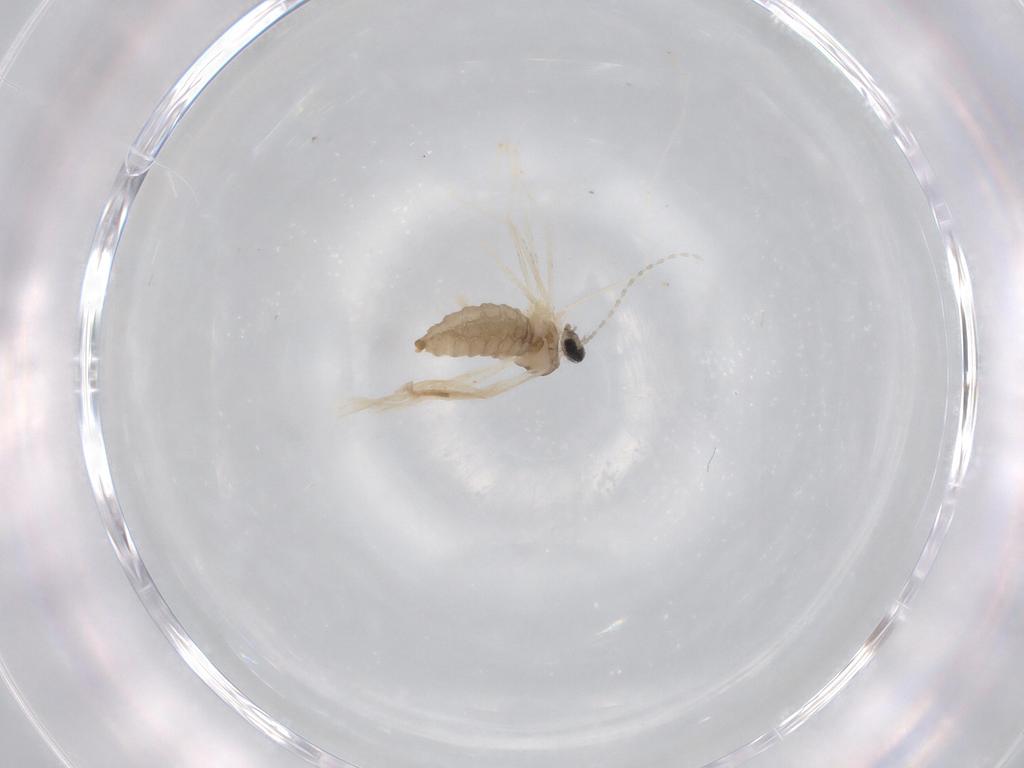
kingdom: Animalia
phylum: Arthropoda
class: Insecta
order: Diptera
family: Cecidomyiidae
